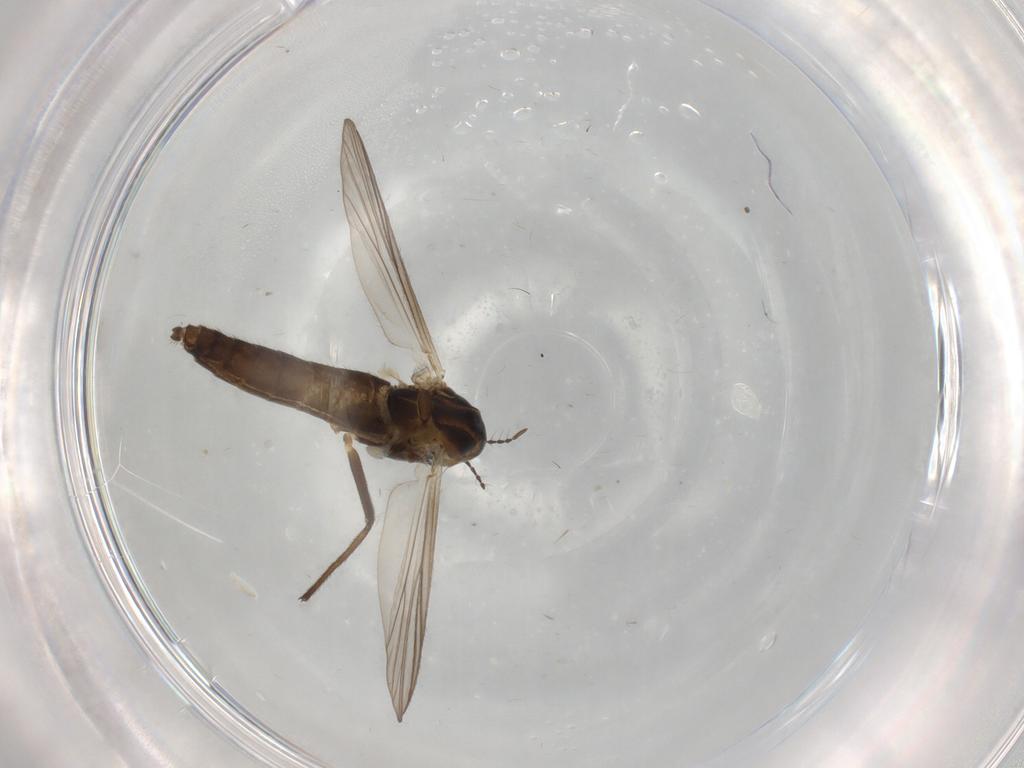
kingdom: Animalia
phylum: Arthropoda
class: Insecta
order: Diptera
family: Chironomidae
